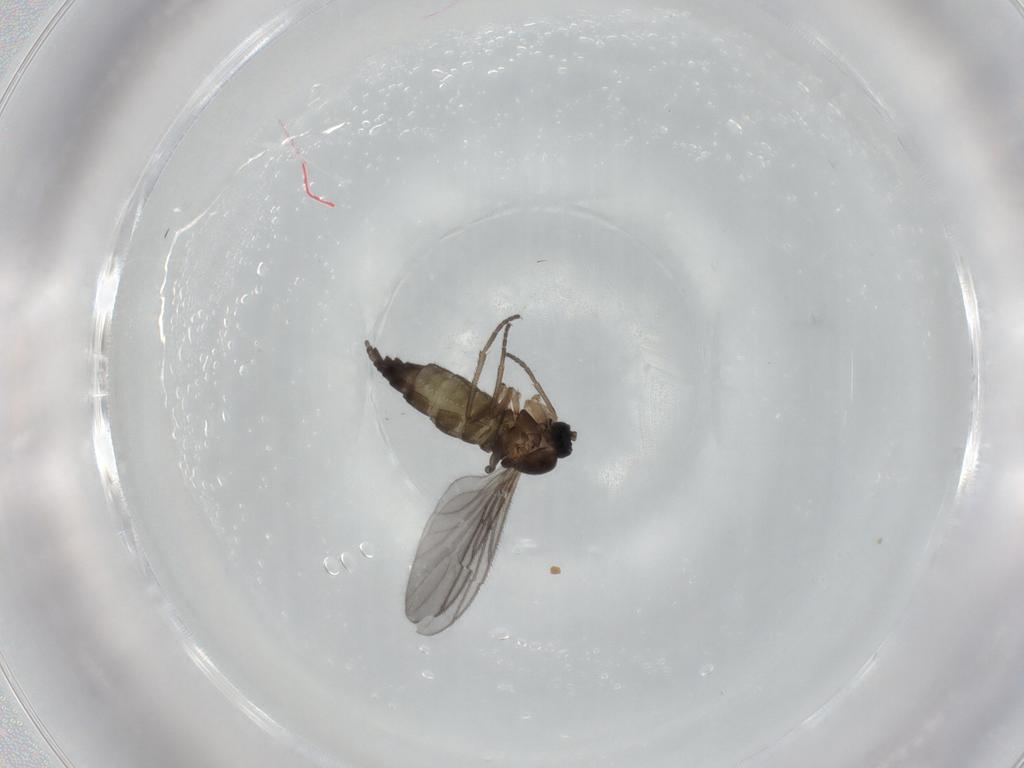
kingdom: Animalia
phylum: Arthropoda
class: Insecta
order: Diptera
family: Sciaridae
